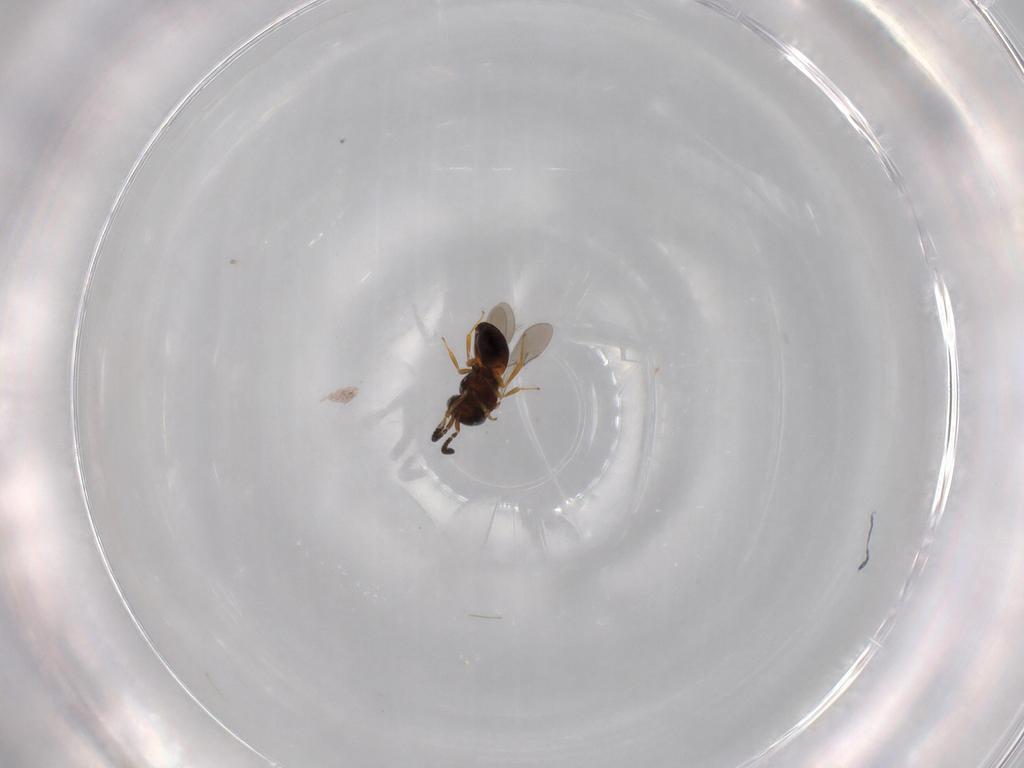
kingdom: Animalia
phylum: Arthropoda
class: Insecta
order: Hymenoptera
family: Scelionidae
